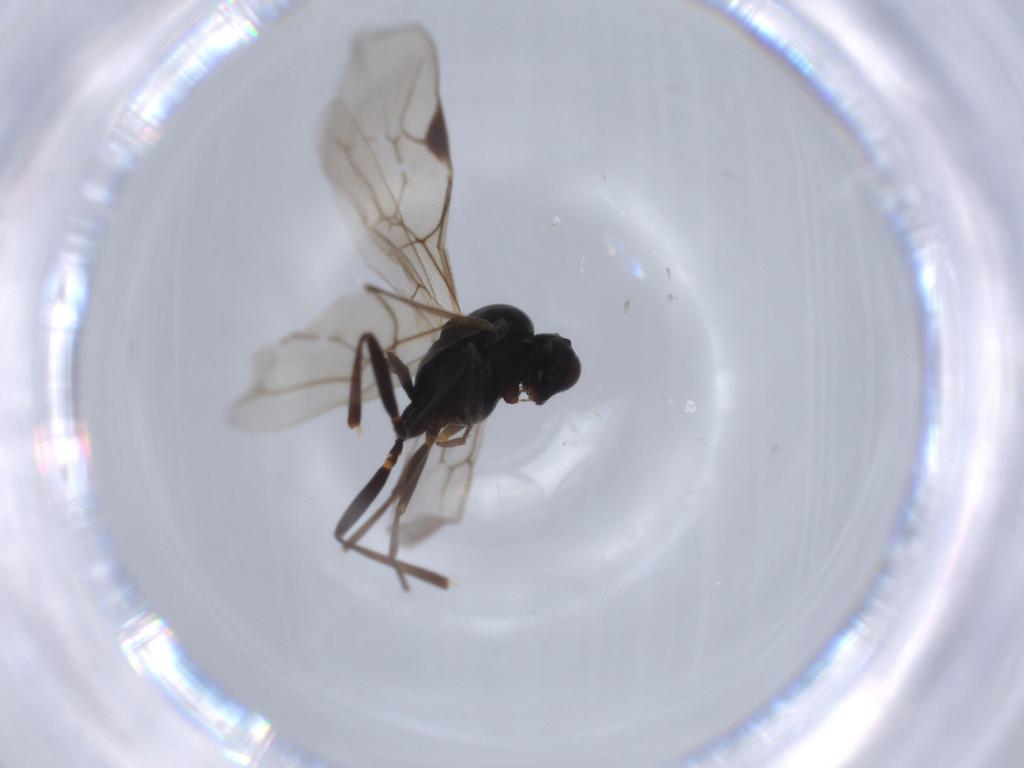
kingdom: Animalia
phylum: Arthropoda
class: Insecta
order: Hymenoptera
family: Ichneumonidae
